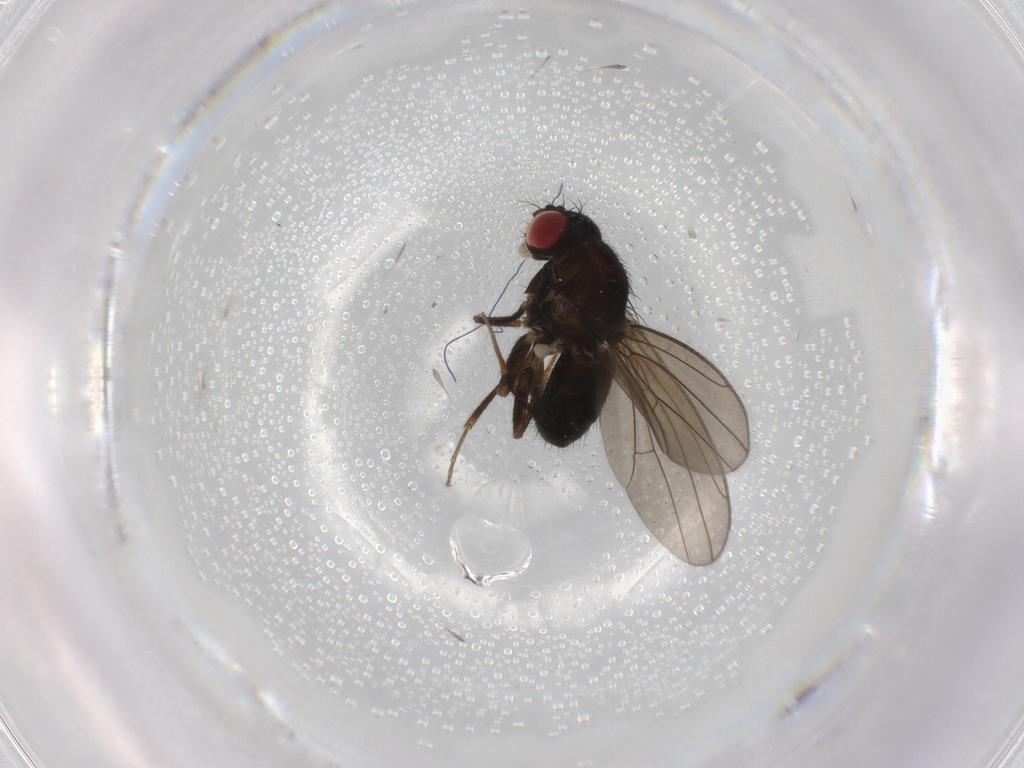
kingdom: Animalia
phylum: Arthropoda
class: Insecta
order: Diptera
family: Drosophilidae
